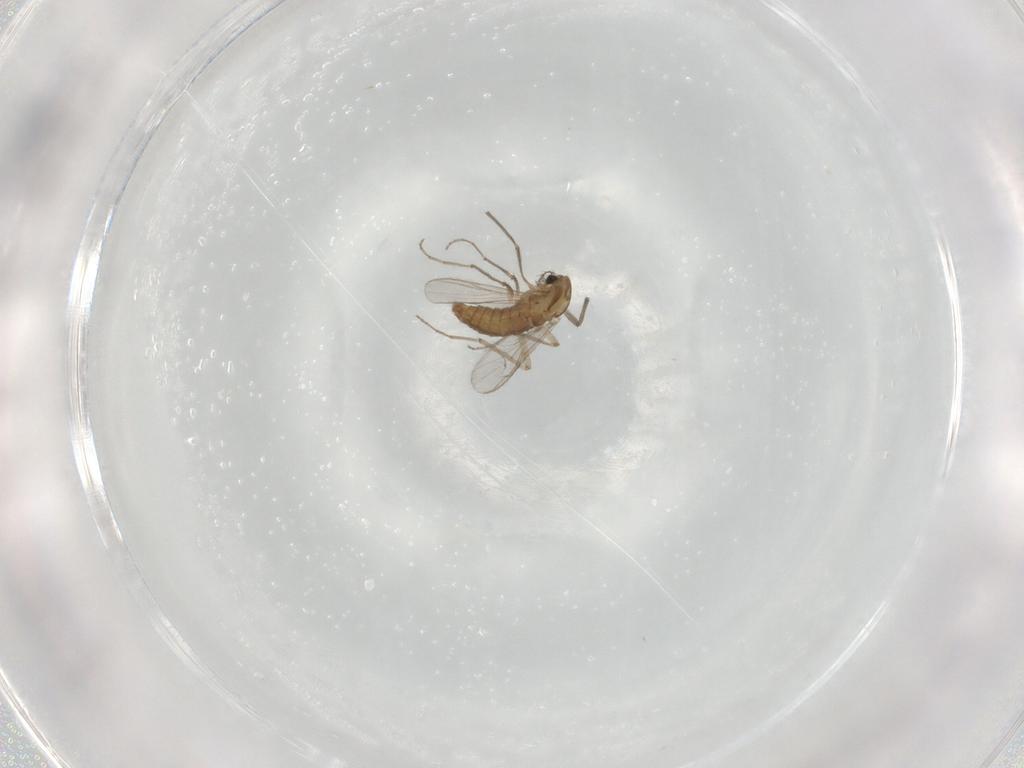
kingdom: Animalia
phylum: Arthropoda
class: Insecta
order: Diptera
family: Chironomidae
